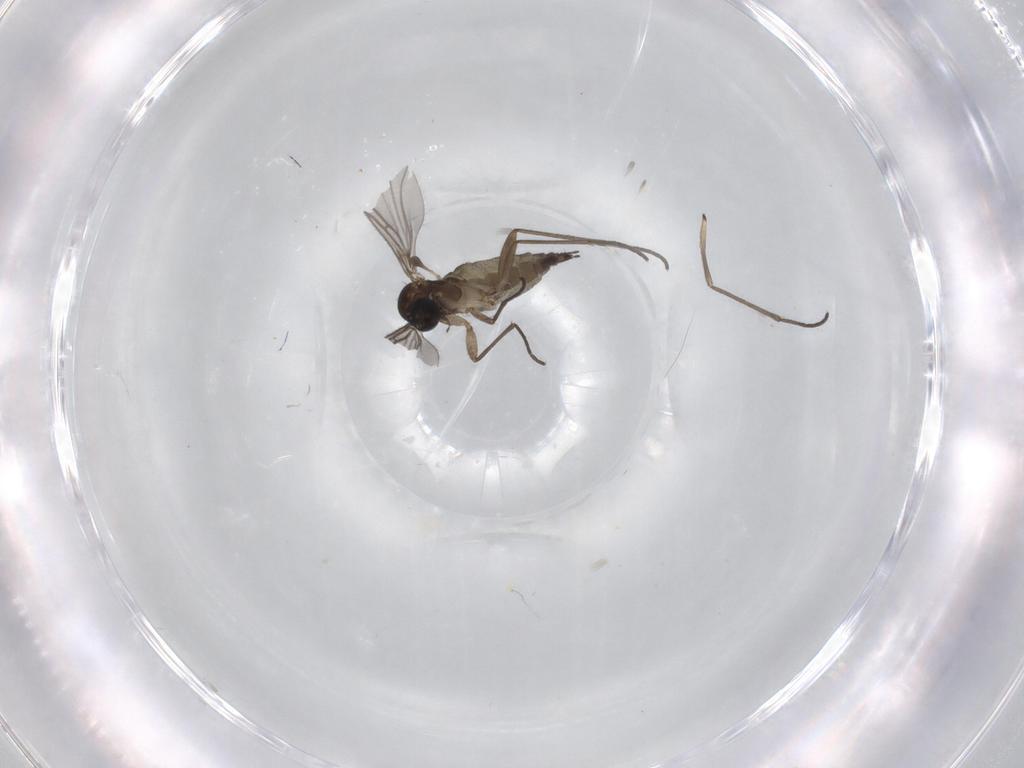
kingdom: Animalia
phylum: Arthropoda
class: Insecta
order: Diptera
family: Sciaridae
